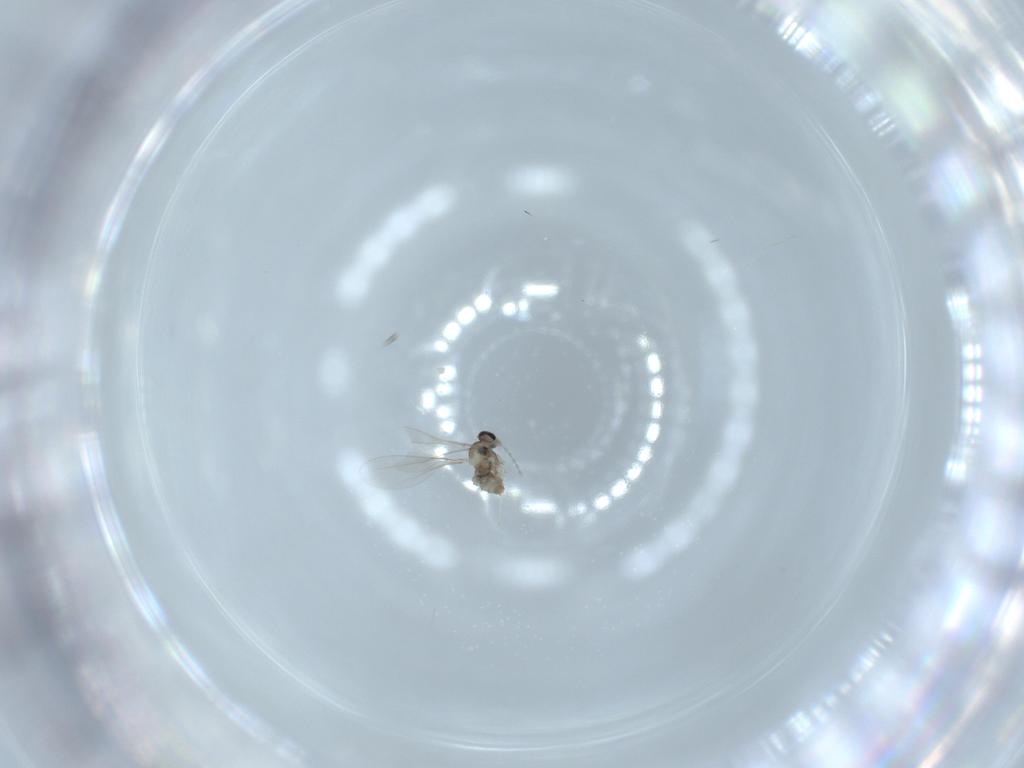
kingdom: Animalia
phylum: Arthropoda
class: Insecta
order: Diptera
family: Cecidomyiidae
